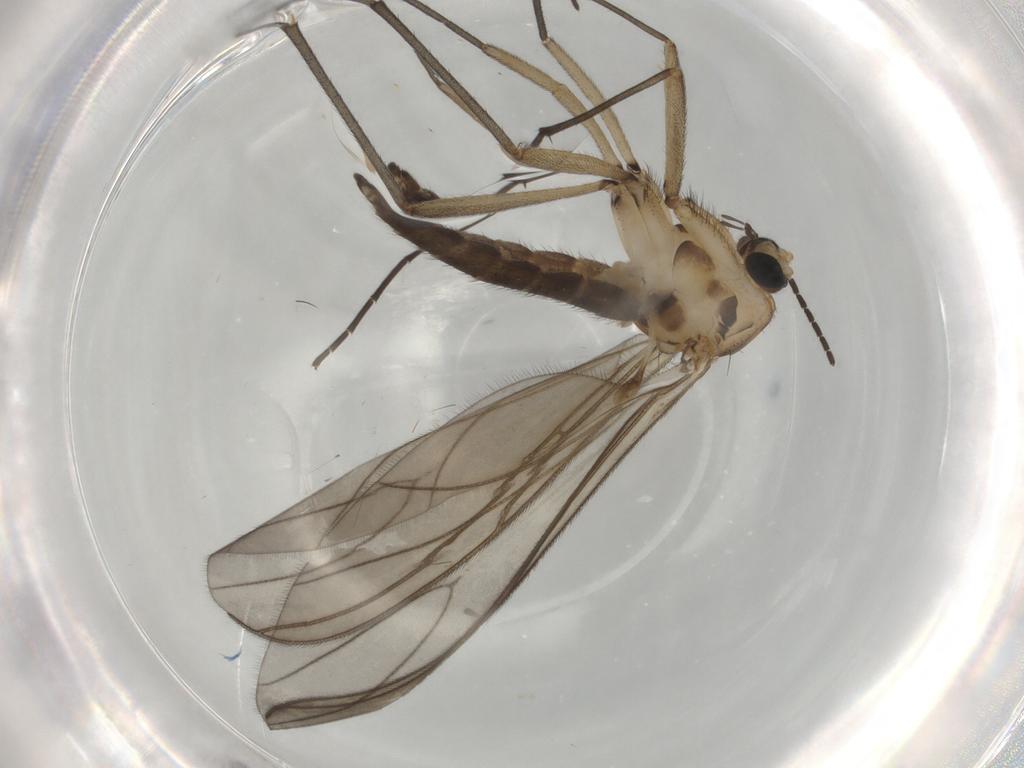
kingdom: Animalia
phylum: Arthropoda
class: Insecta
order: Diptera
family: Sciaridae
